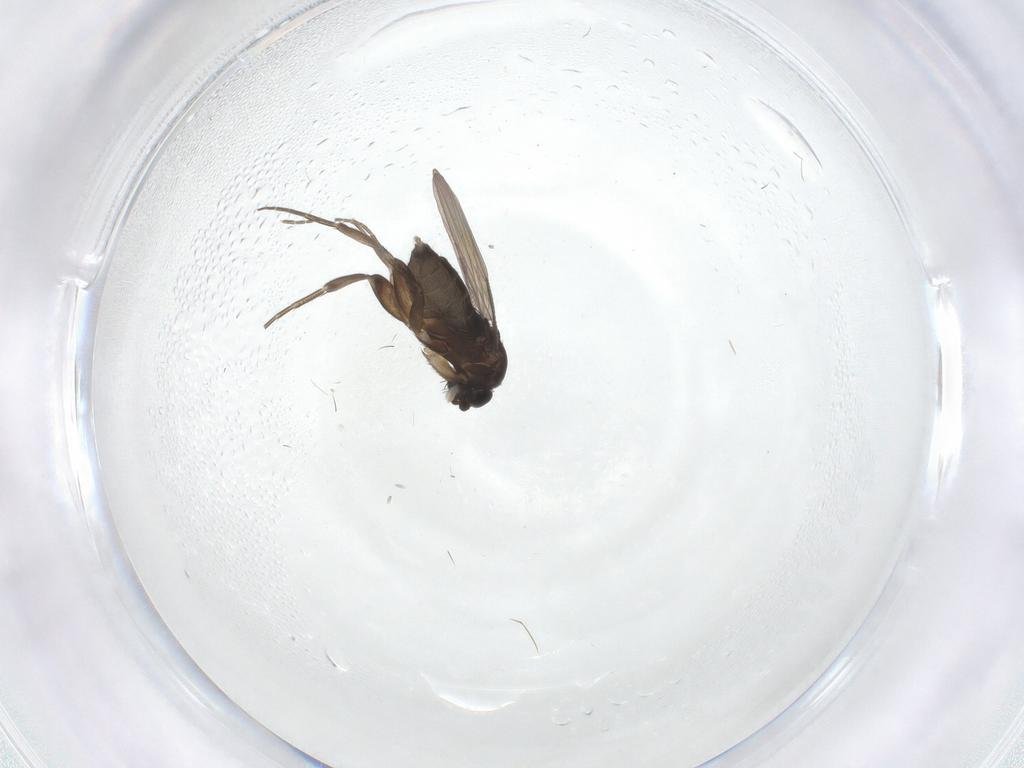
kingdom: Animalia
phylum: Arthropoda
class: Insecta
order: Diptera
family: Phoridae
